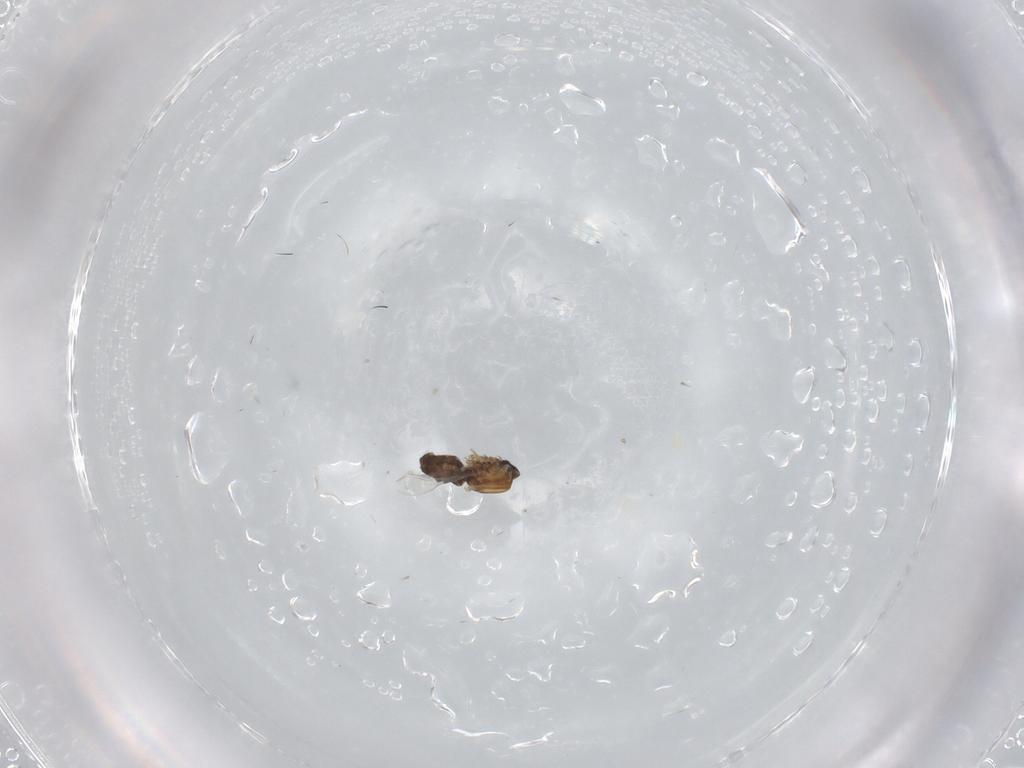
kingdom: Animalia
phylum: Arthropoda
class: Insecta
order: Diptera
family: Ceratopogonidae
